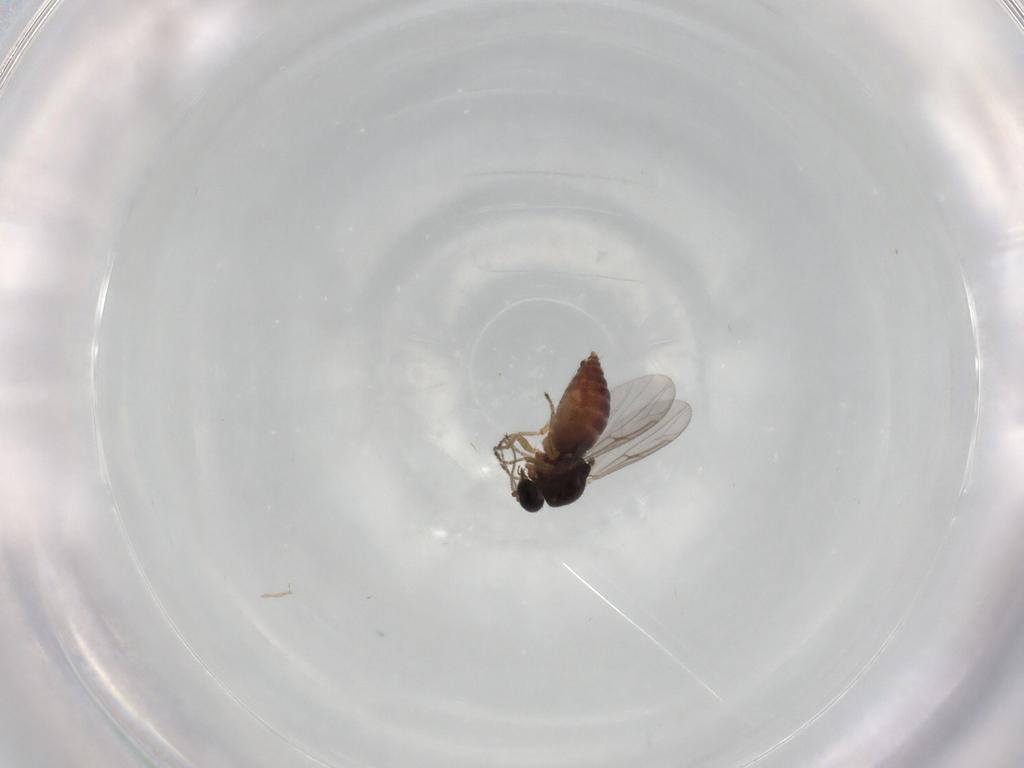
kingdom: Animalia
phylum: Arthropoda
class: Insecta
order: Diptera
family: Ceratopogonidae
